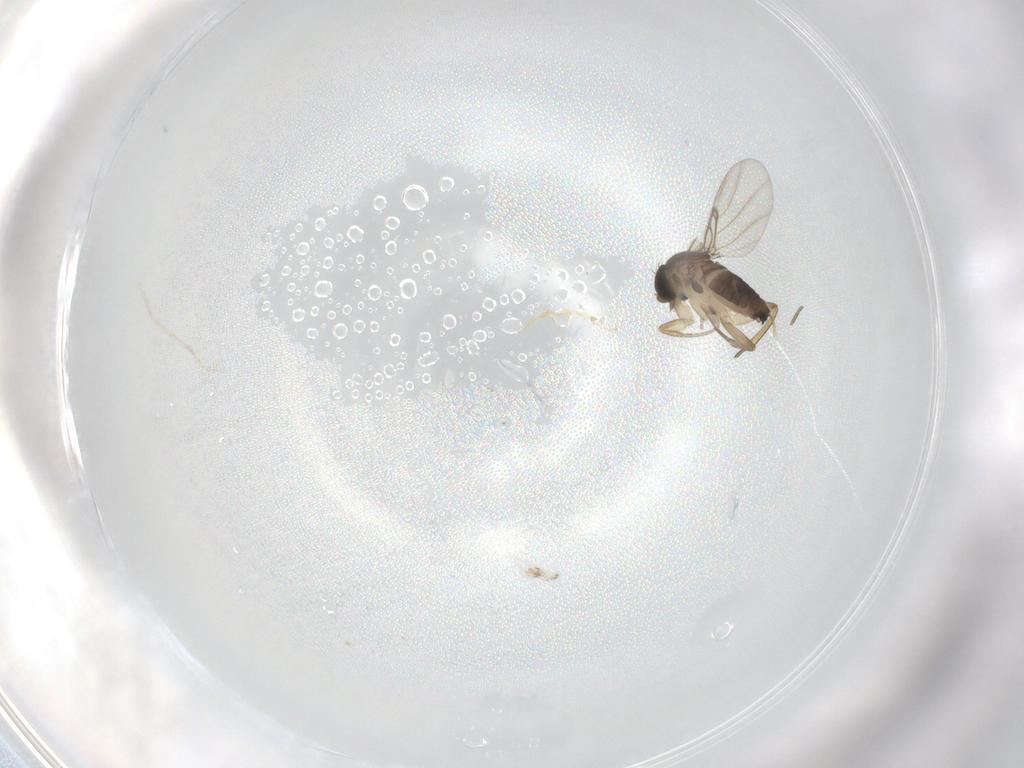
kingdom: Animalia
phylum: Arthropoda
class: Insecta
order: Diptera
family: Phoridae
